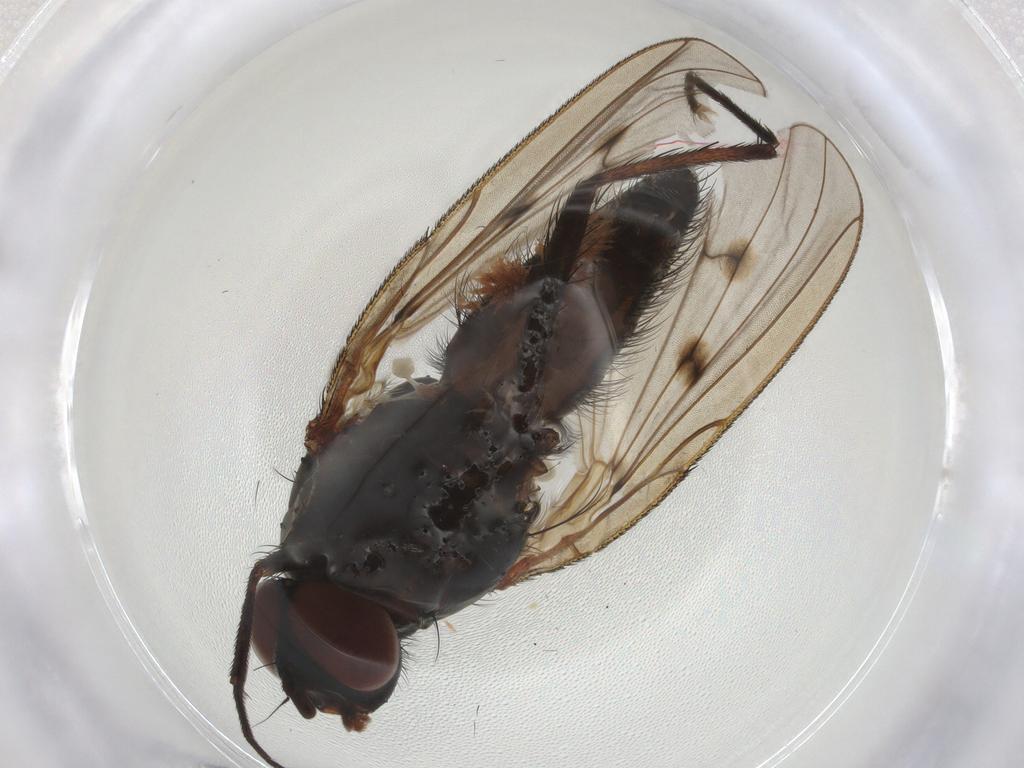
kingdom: Animalia
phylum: Arthropoda
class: Insecta
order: Diptera
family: Anthomyiidae
